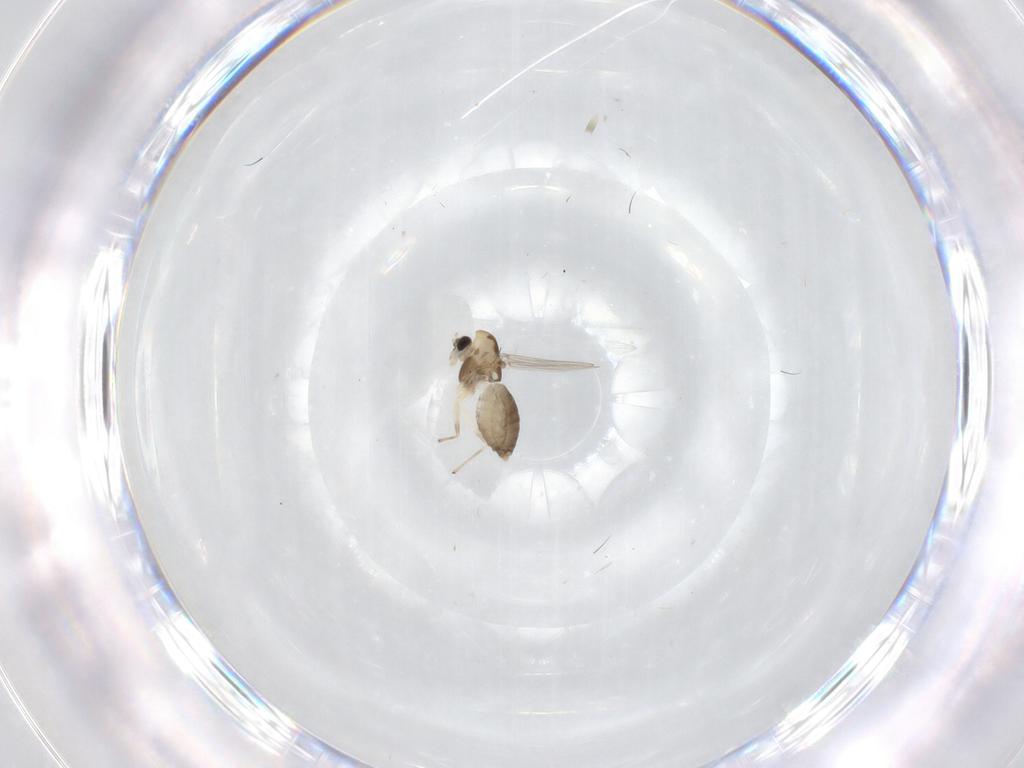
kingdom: Animalia
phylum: Arthropoda
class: Insecta
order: Diptera
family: Chironomidae
